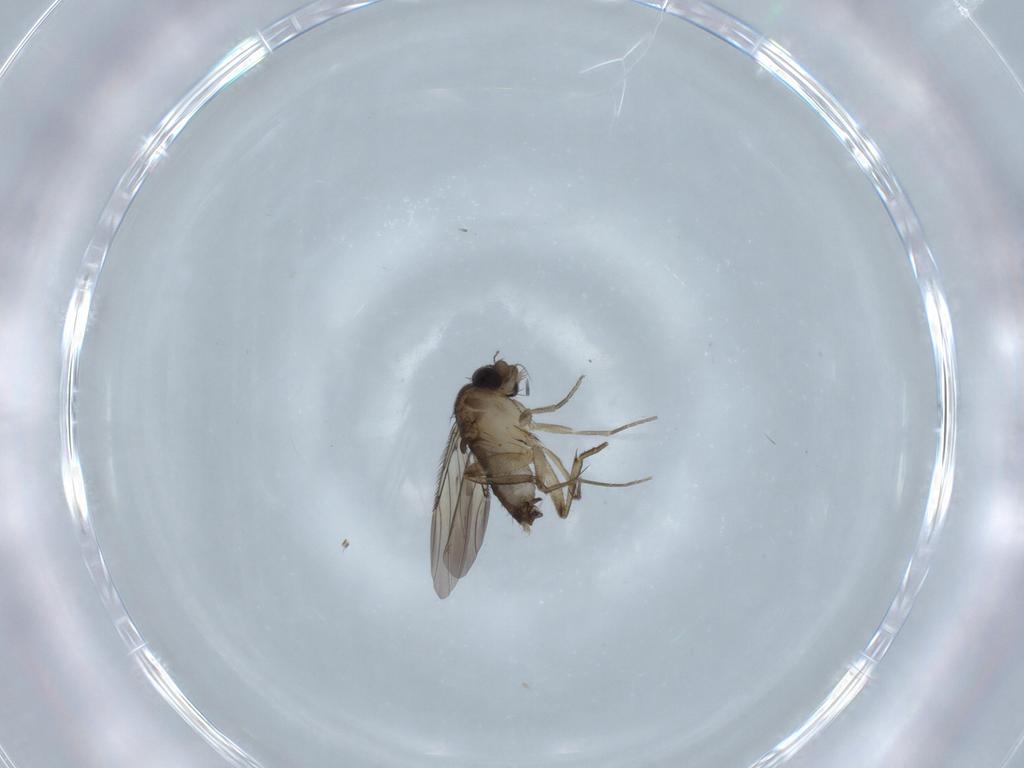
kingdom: Animalia
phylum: Arthropoda
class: Insecta
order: Diptera
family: Phoridae
